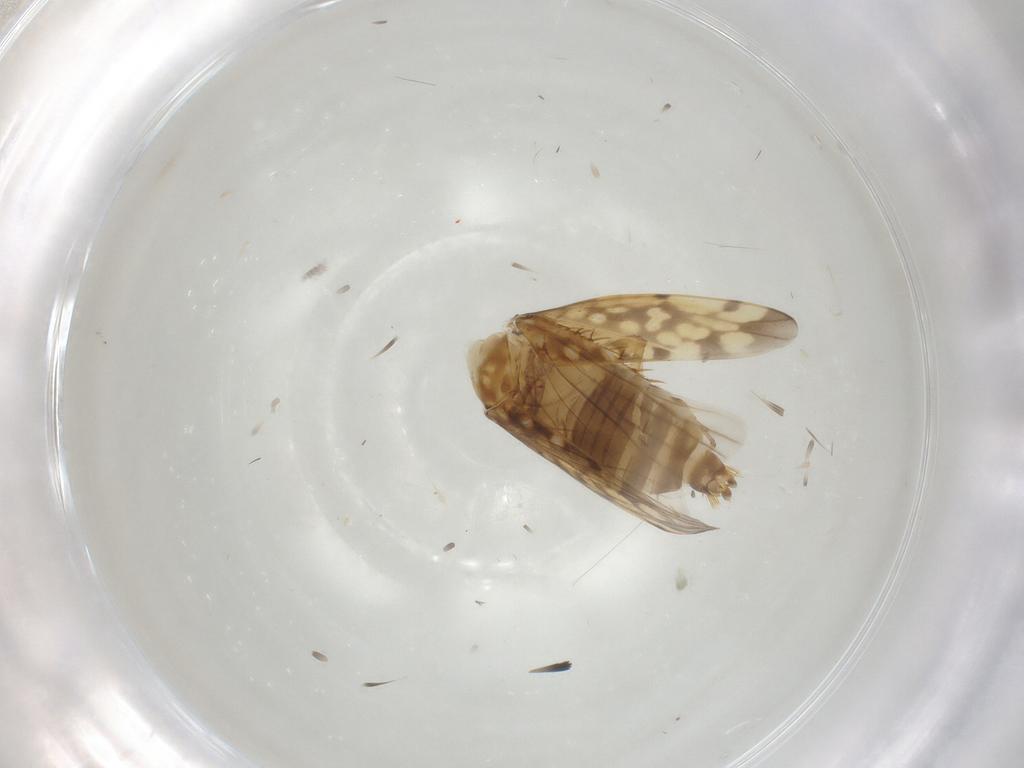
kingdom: Animalia
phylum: Arthropoda
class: Insecta
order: Hemiptera
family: Cicadellidae
